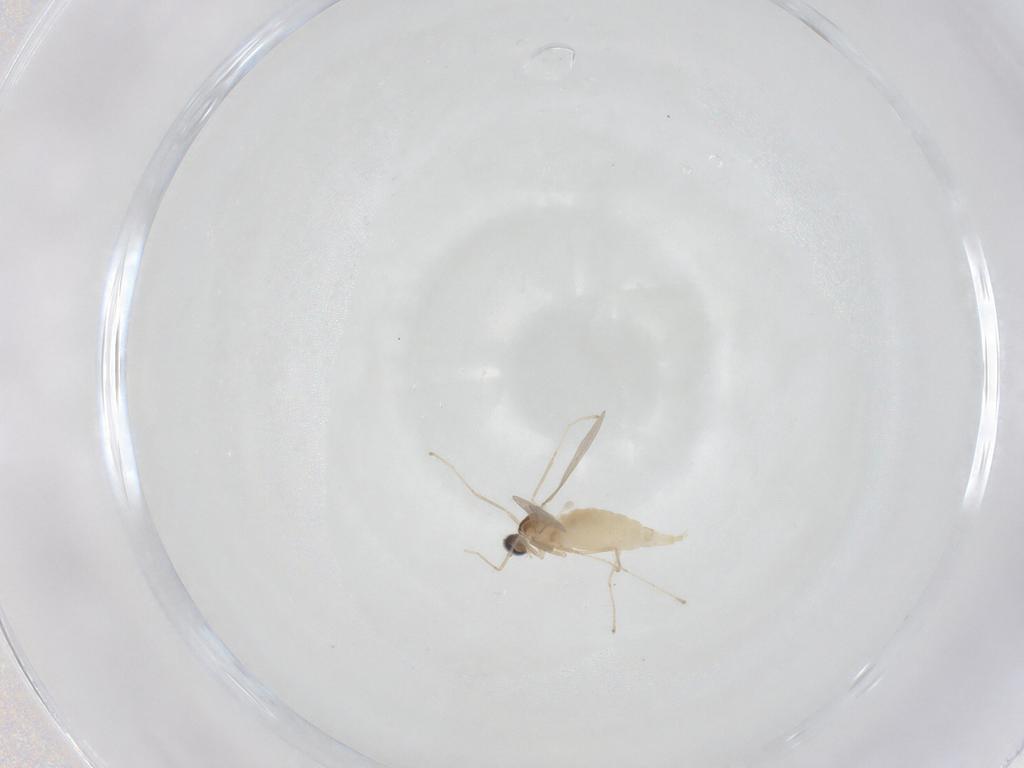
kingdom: Animalia
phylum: Arthropoda
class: Insecta
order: Diptera
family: Cecidomyiidae
